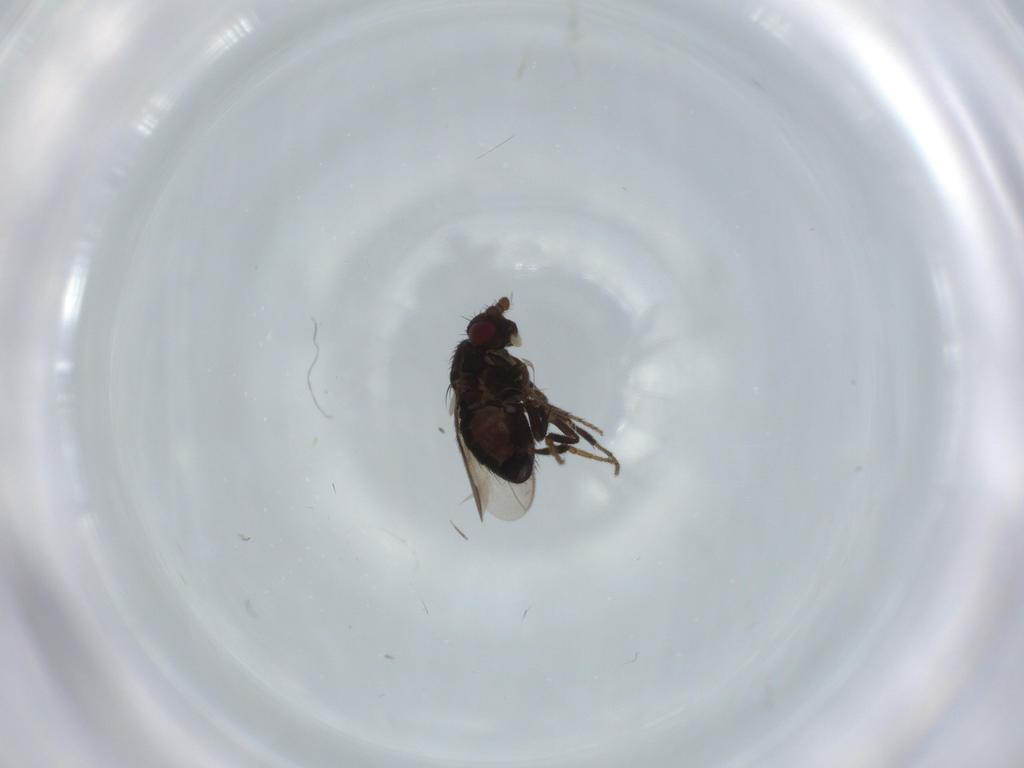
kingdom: Animalia
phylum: Arthropoda
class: Insecta
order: Diptera
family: Sphaeroceridae
